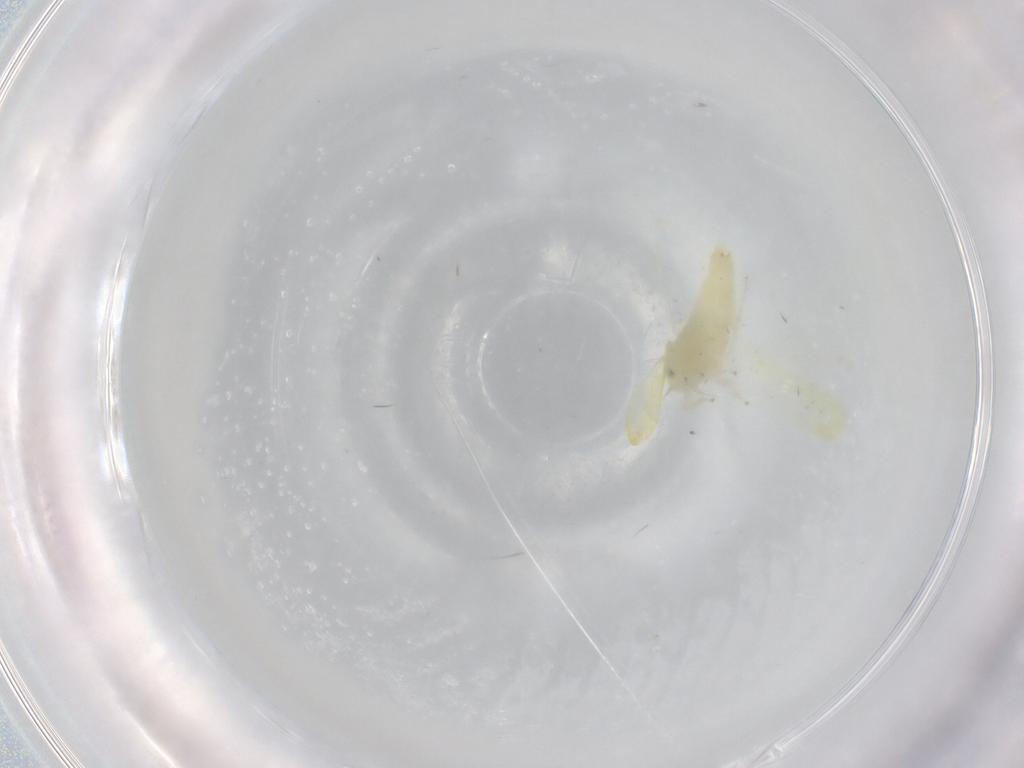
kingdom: Animalia
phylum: Arthropoda
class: Insecta
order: Hemiptera
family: Cicadellidae
